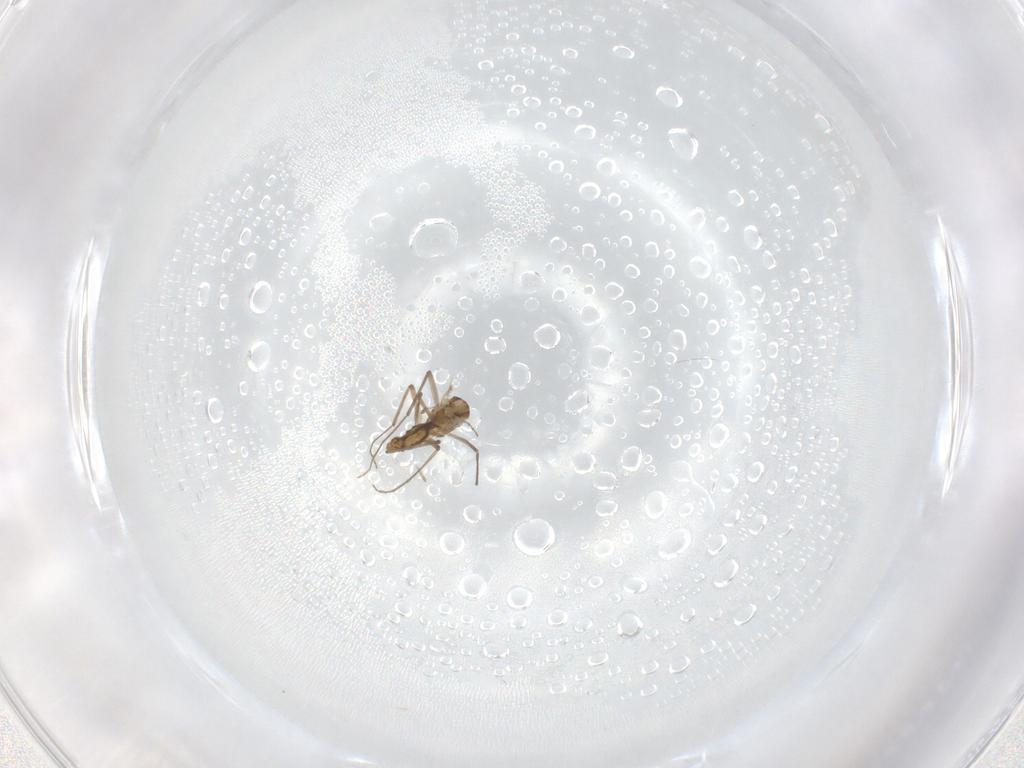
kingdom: Animalia
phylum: Arthropoda
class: Insecta
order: Diptera
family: Chironomidae
